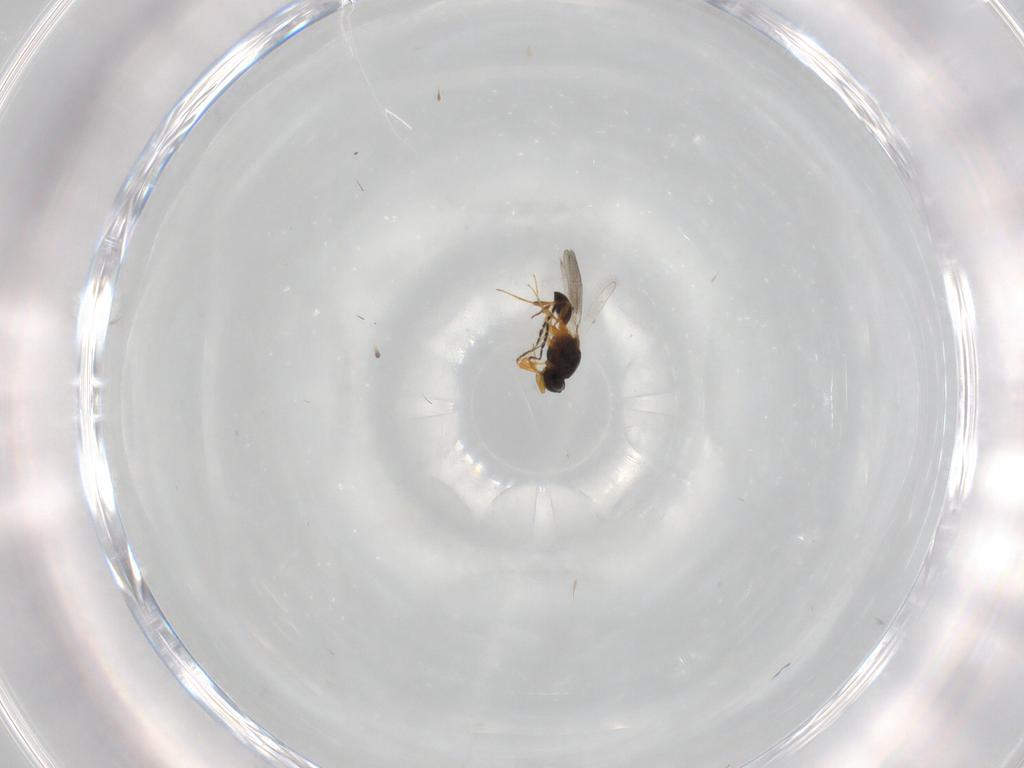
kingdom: Animalia
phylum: Arthropoda
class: Insecta
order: Hymenoptera
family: Platygastridae
